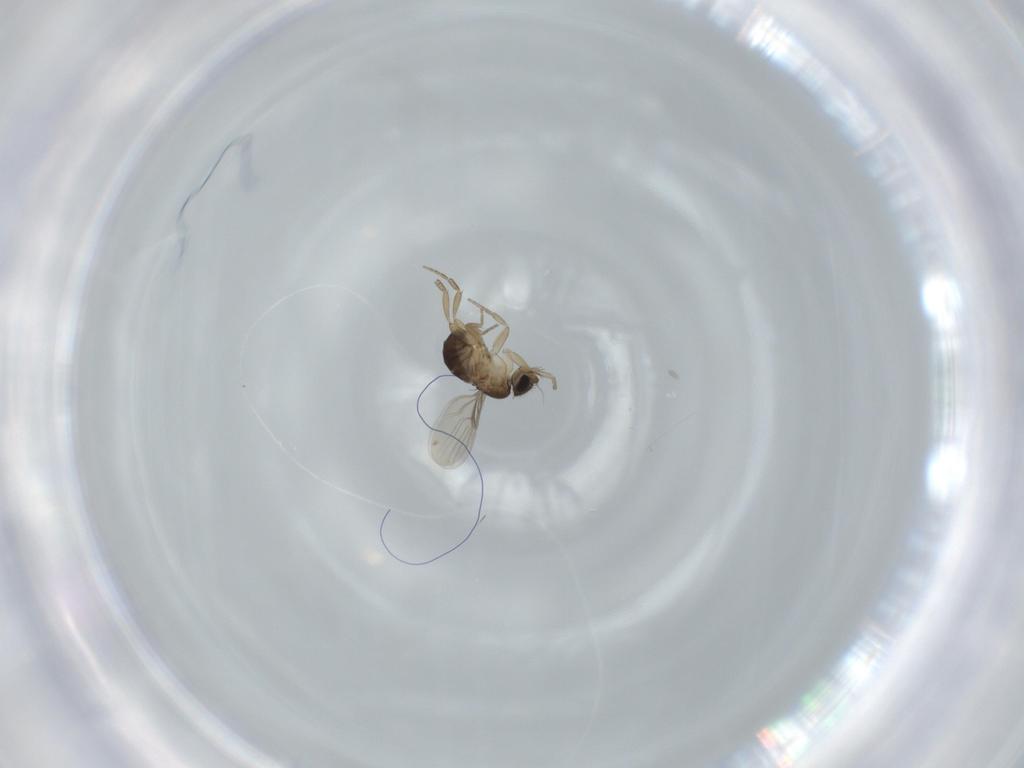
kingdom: Animalia
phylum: Arthropoda
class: Insecta
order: Diptera
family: Phoridae
